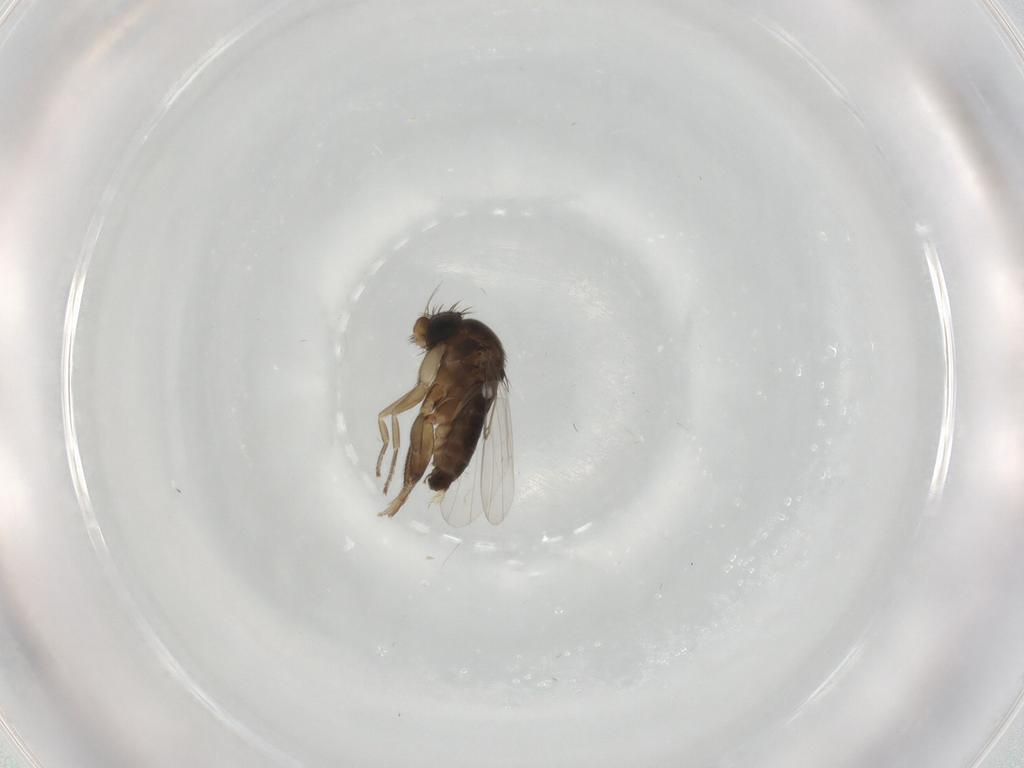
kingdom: Animalia
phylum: Arthropoda
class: Insecta
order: Diptera
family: Phoridae
